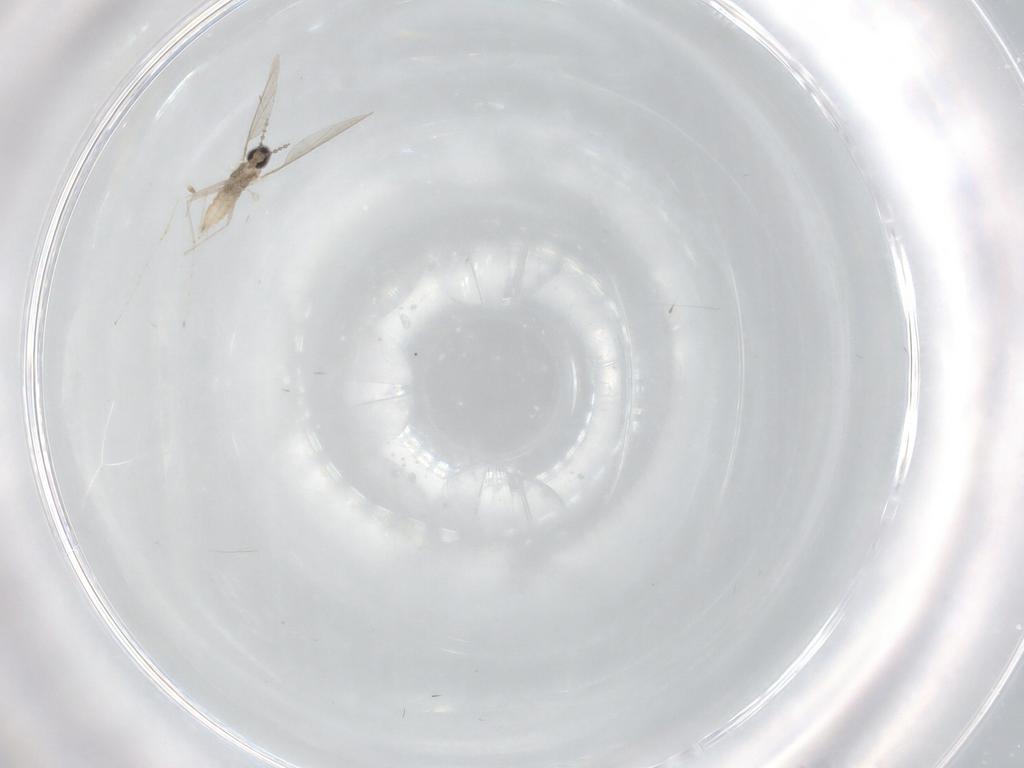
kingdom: Animalia
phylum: Arthropoda
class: Insecta
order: Diptera
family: Cecidomyiidae
